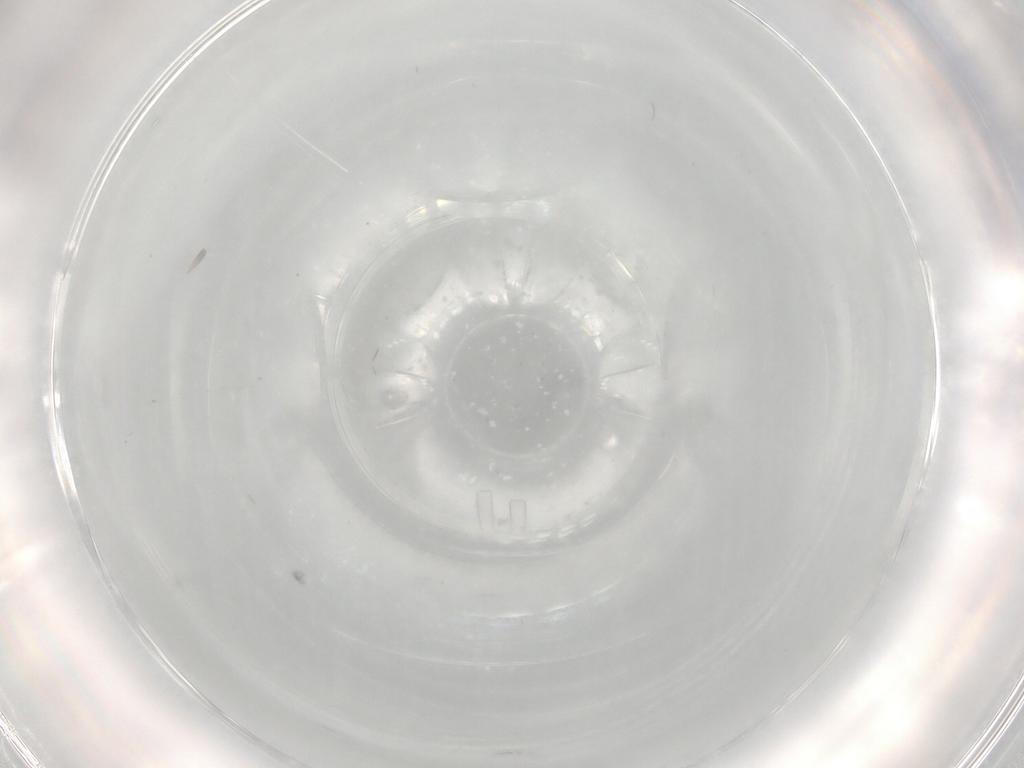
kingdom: Animalia
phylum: Arthropoda
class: Insecta
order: Diptera
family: Cecidomyiidae
